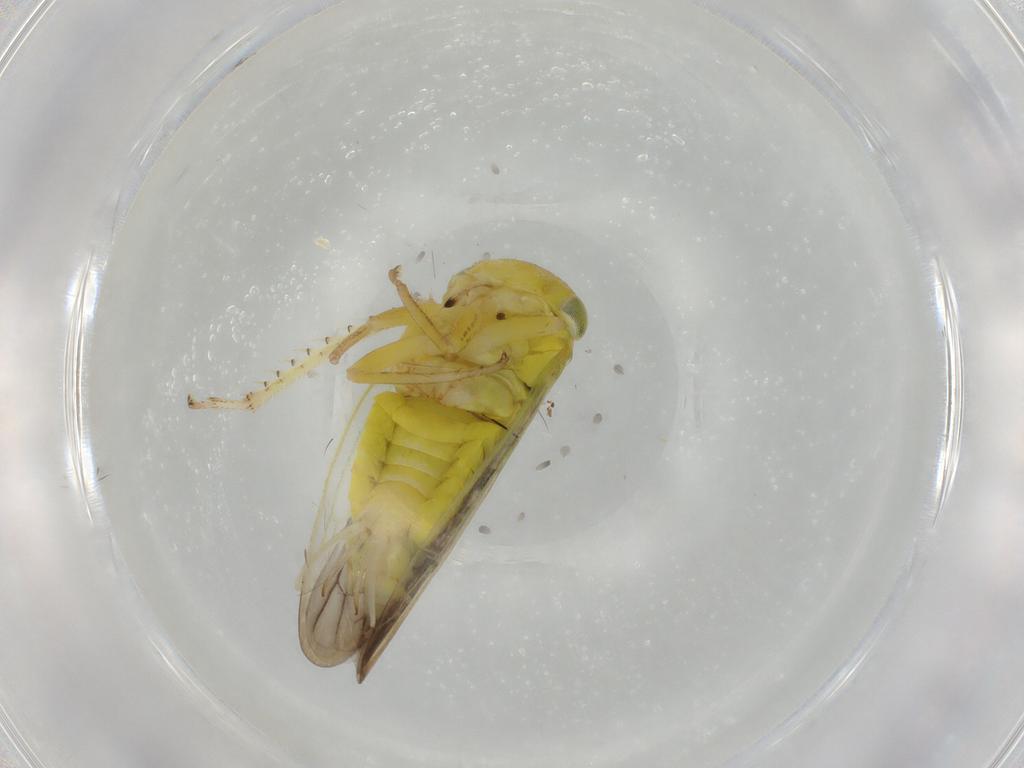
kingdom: Animalia
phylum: Arthropoda
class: Insecta
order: Hemiptera
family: Cicadellidae
